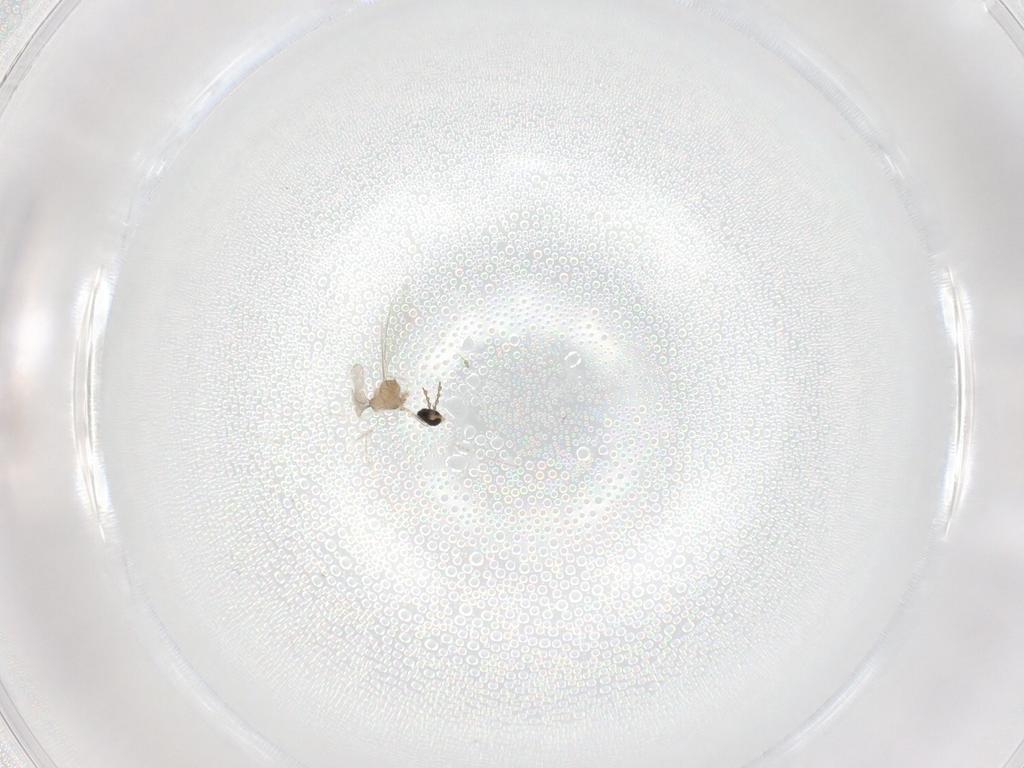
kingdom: Animalia
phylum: Arthropoda
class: Insecta
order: Diptera
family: Cecidomyiidae
